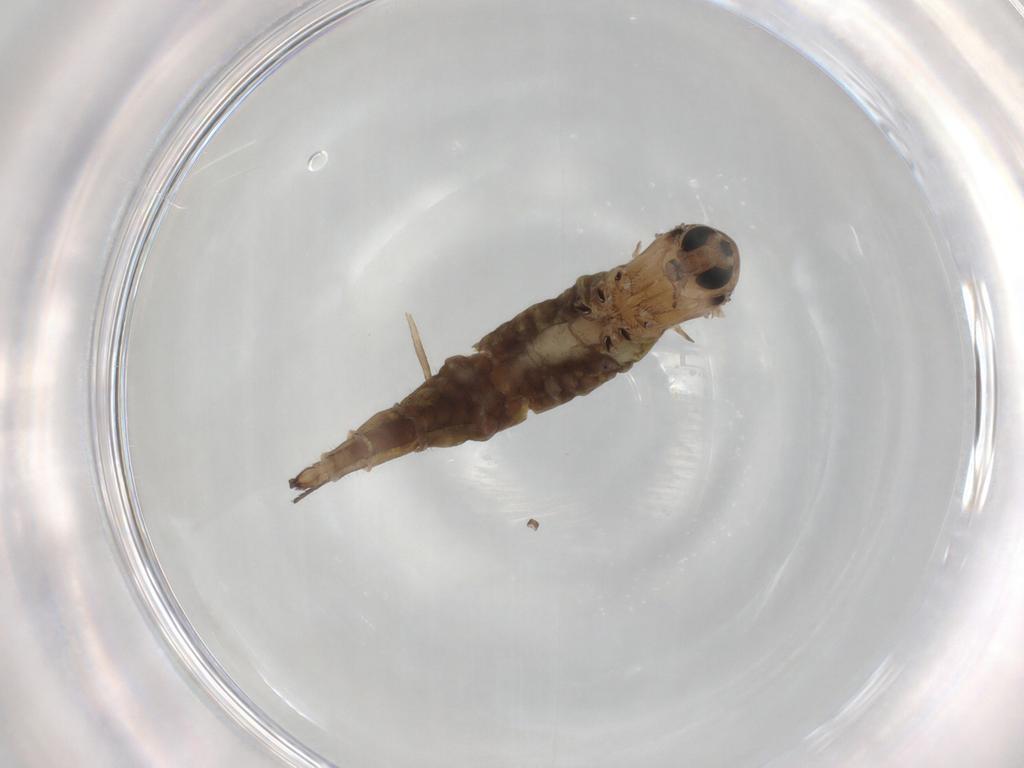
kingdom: Animalia
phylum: Arthropoda
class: Insecta
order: Diptera
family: Sciaridae
